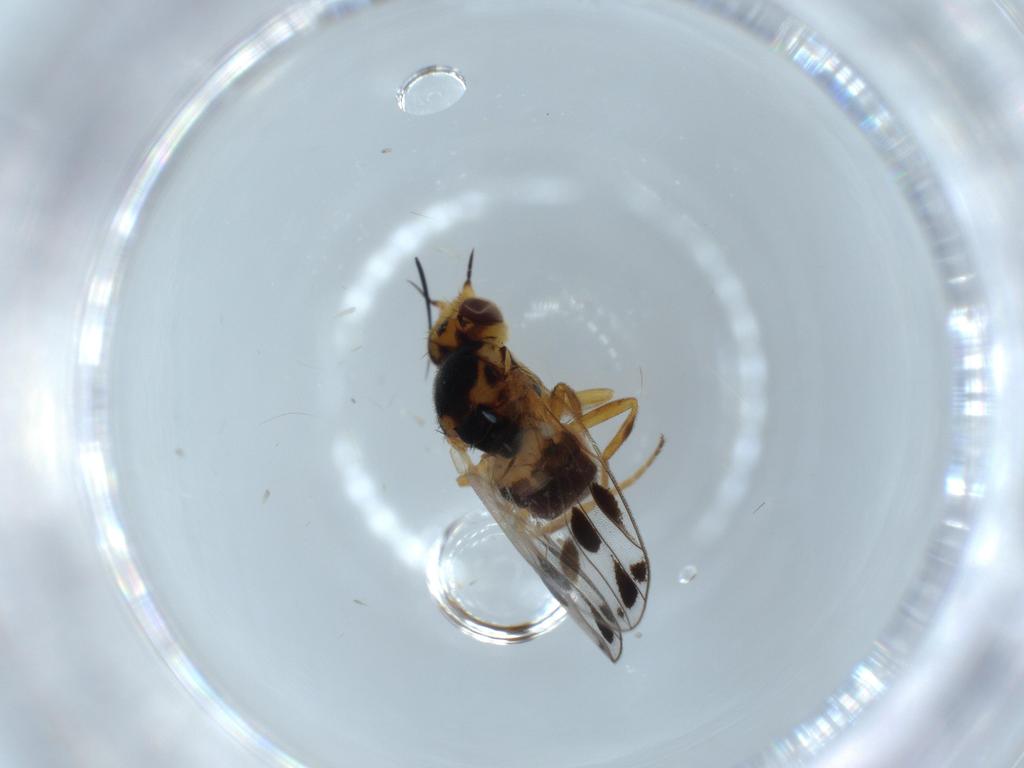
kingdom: Animalia
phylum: Arthropoda
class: Insecta
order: Diptera
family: Chloropidae
